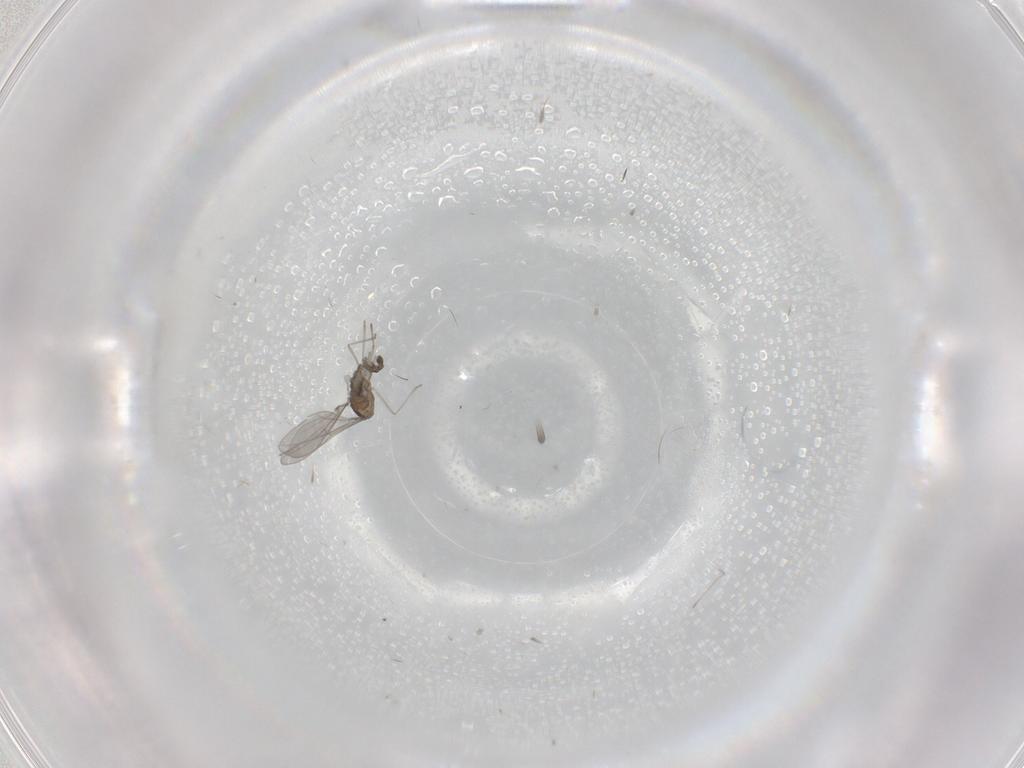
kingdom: Animalia
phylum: Arthropoda
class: Insecta
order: Diptera
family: Cecidomyiidae
